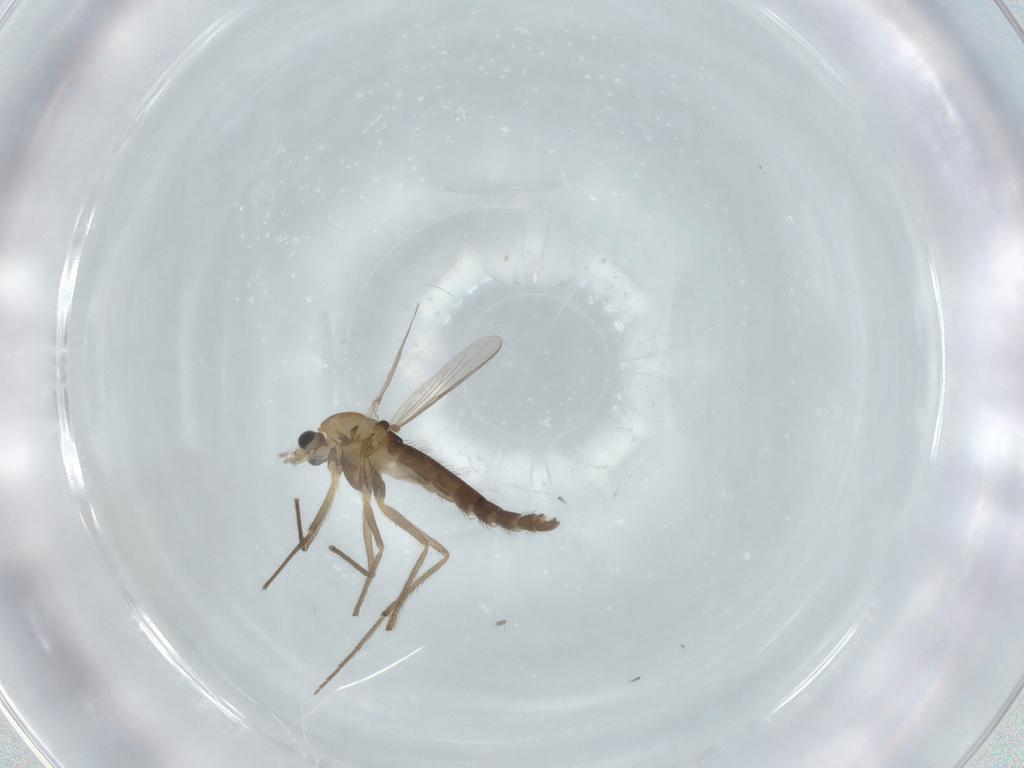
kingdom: Animalia
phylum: Arthropoda
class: Insecta
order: Diptera
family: Chironomidae
